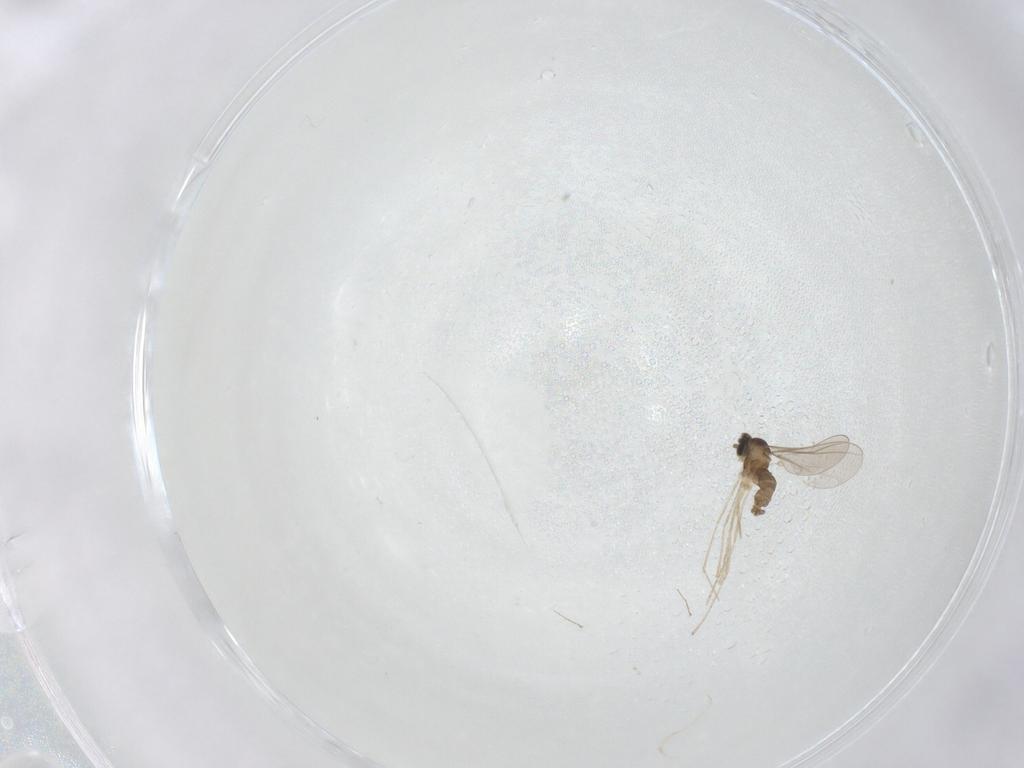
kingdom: Animalia
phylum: Arthropoda
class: Insecta
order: Diptera
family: Cecidomyiidae
